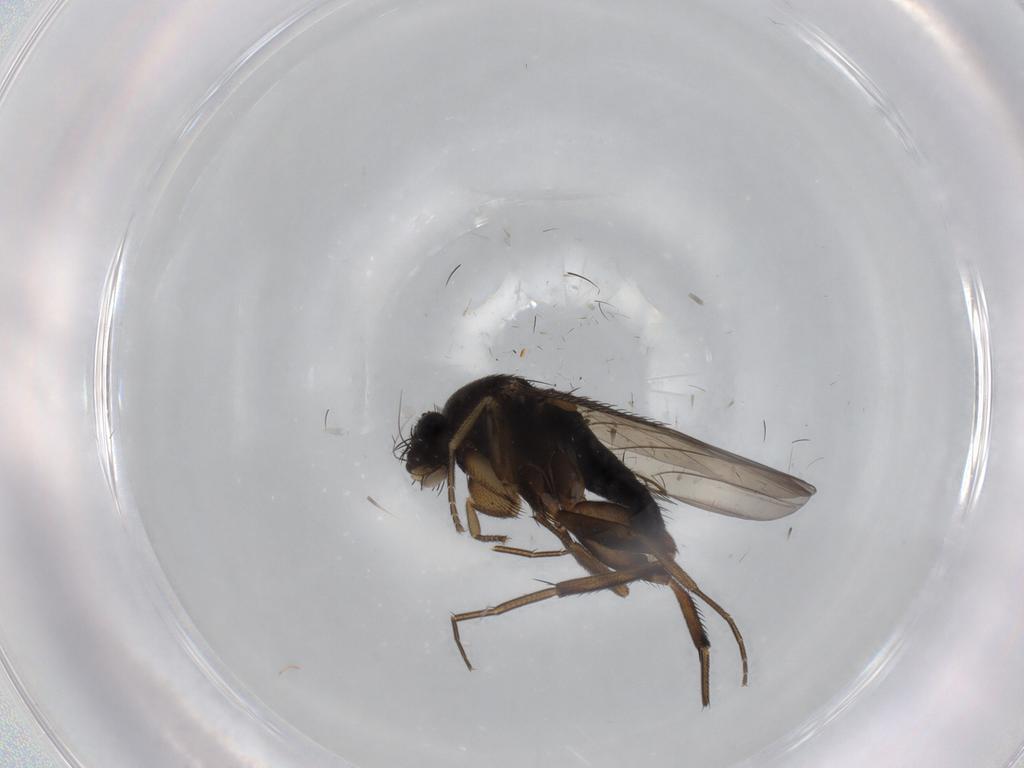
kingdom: Animalia
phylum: Arthropoda
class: Insecta
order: Diptera
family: Phoridae
